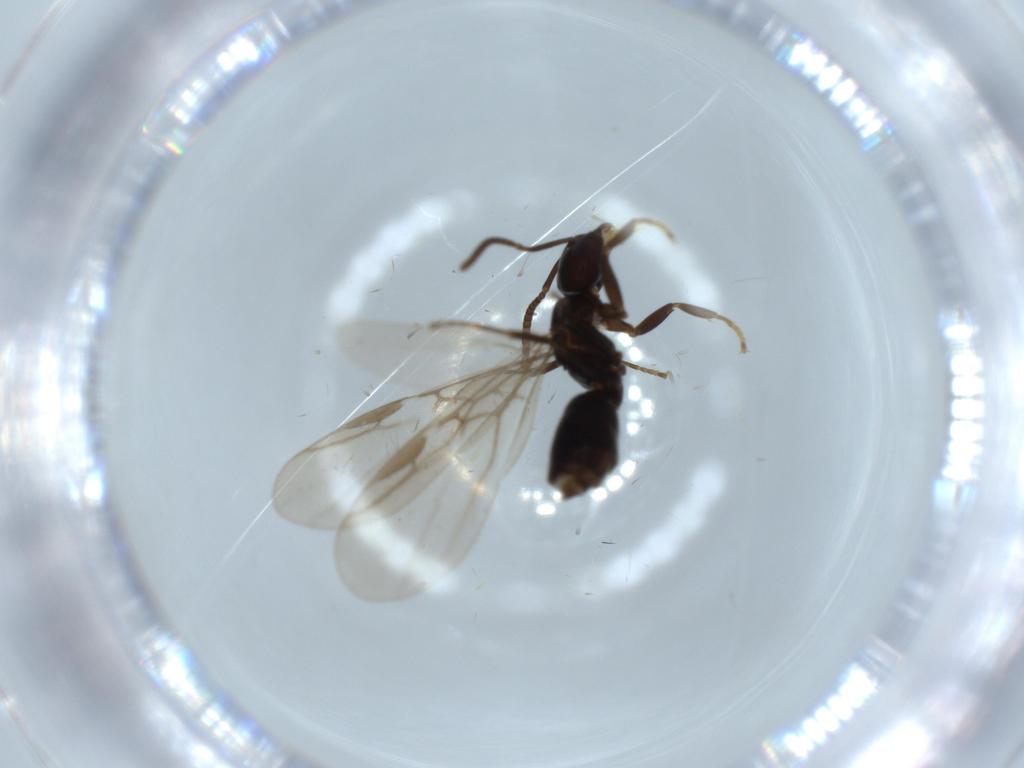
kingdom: Animalia
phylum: Arthropoda
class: Insecta
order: Hymenoptera
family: Formicidae
